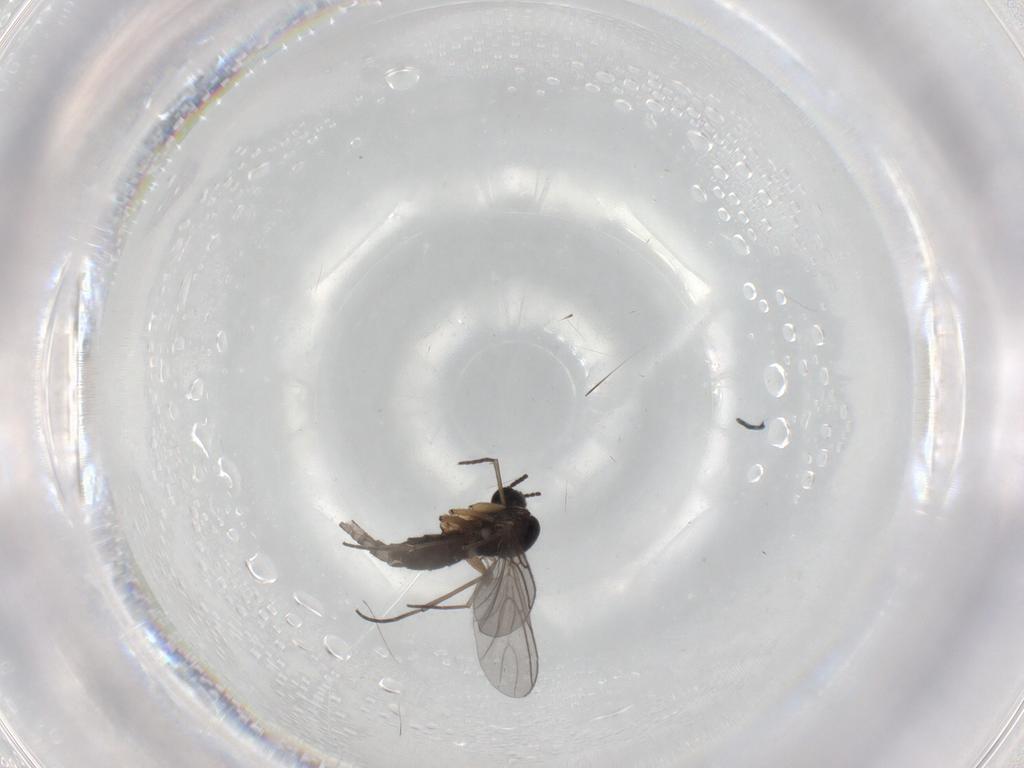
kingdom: Animalia
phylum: Arthropoda
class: Insecta
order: Diptera
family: Sciaridae
